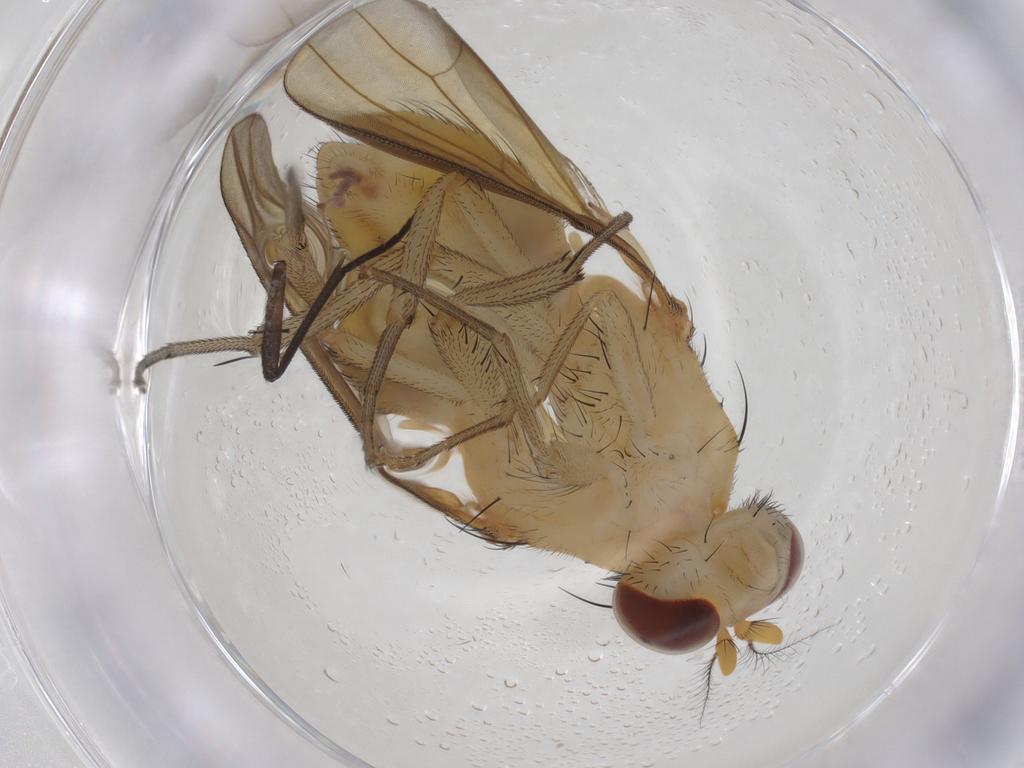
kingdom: Animalia
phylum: Arthropoda
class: Insecta
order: Diptera
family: Sciaridae
